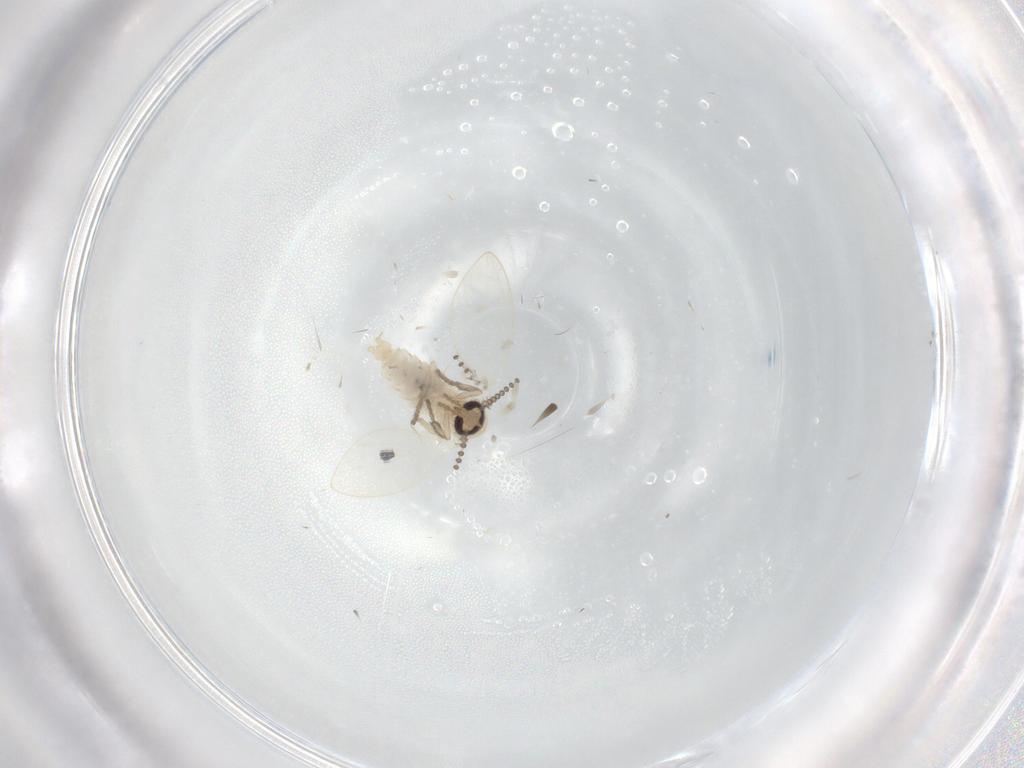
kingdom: Animalia
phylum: Arthropoda
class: Insecta
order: Diptera
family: Psychodidae
